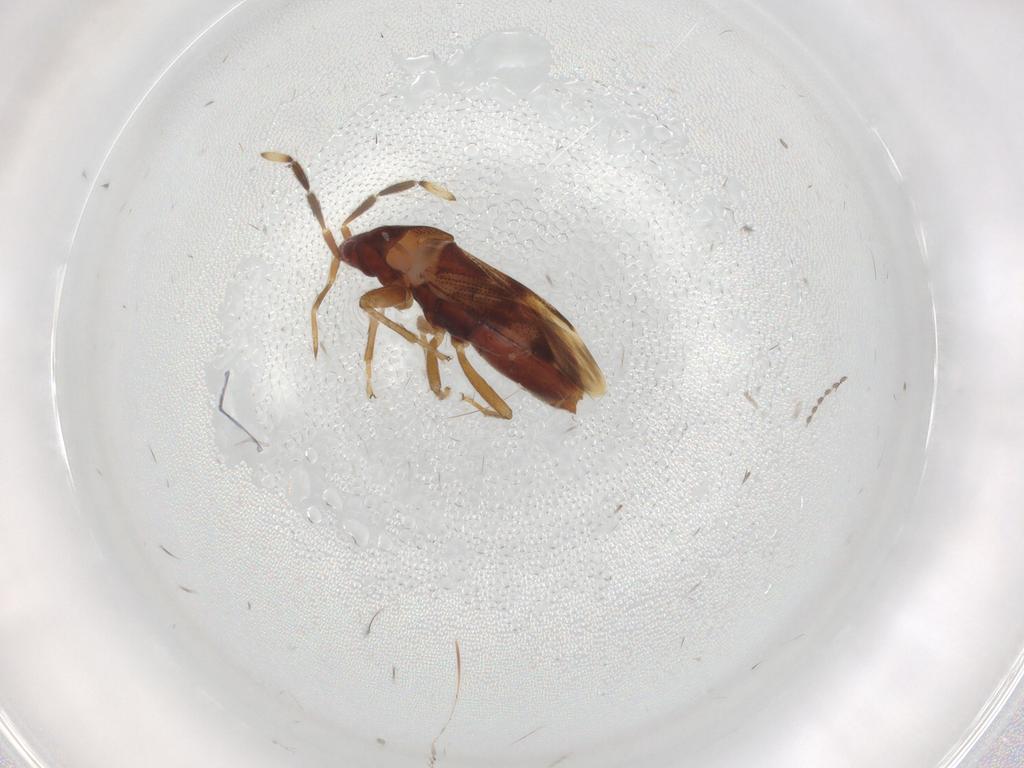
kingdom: Animalia
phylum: Arthropoda
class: Insecta
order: Hemiptera
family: Rhyparochromidae
